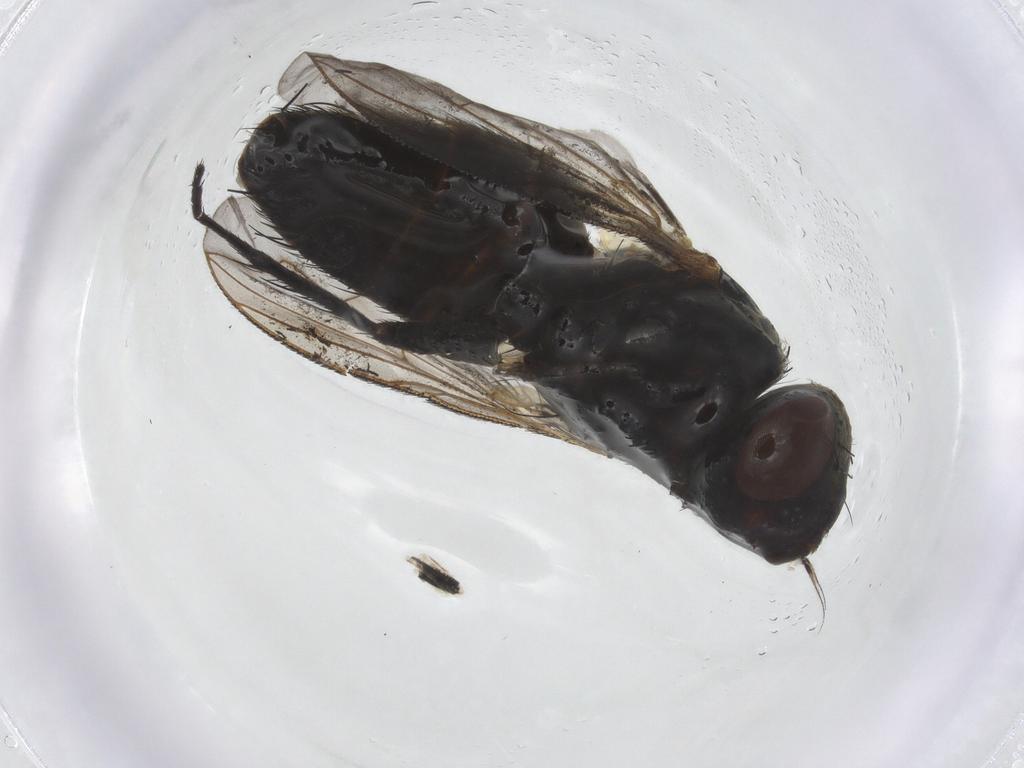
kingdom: Animalia
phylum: Arthropoda
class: Insecta
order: Diptera
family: Sarcophagidae
